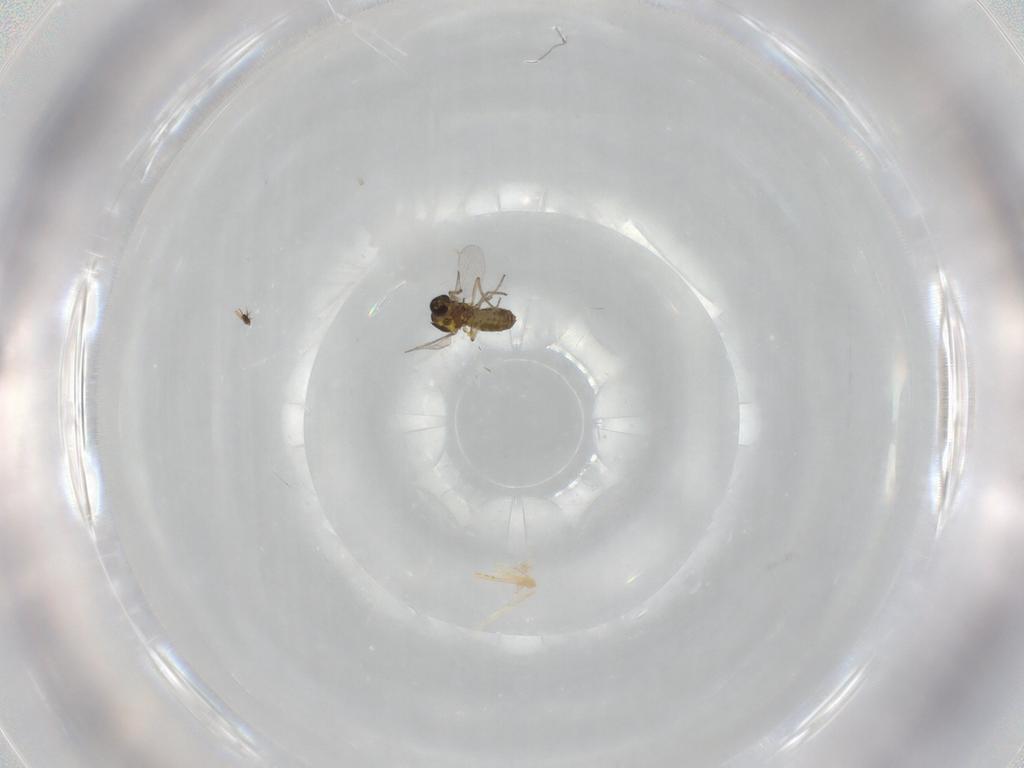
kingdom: Animalia
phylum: Arthropoda
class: Insecta
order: Diptera
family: Ceratopogonidae
